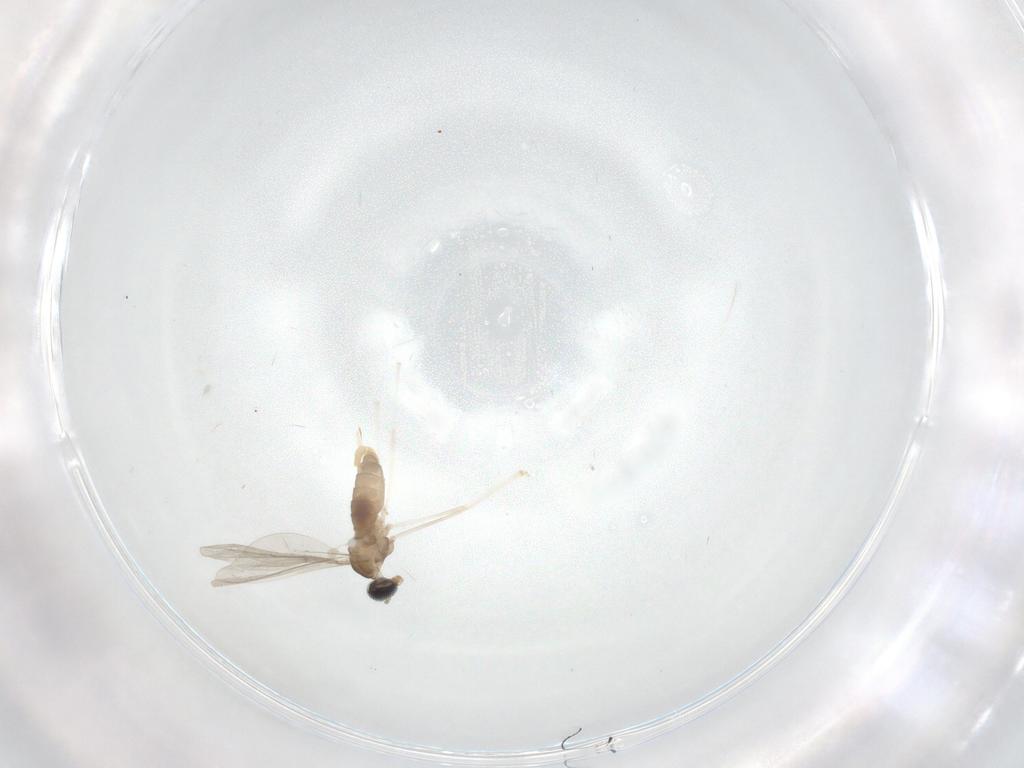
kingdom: Animalia
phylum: Arthropoda
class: Insecta
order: Diptera
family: Cecidomyiidae
